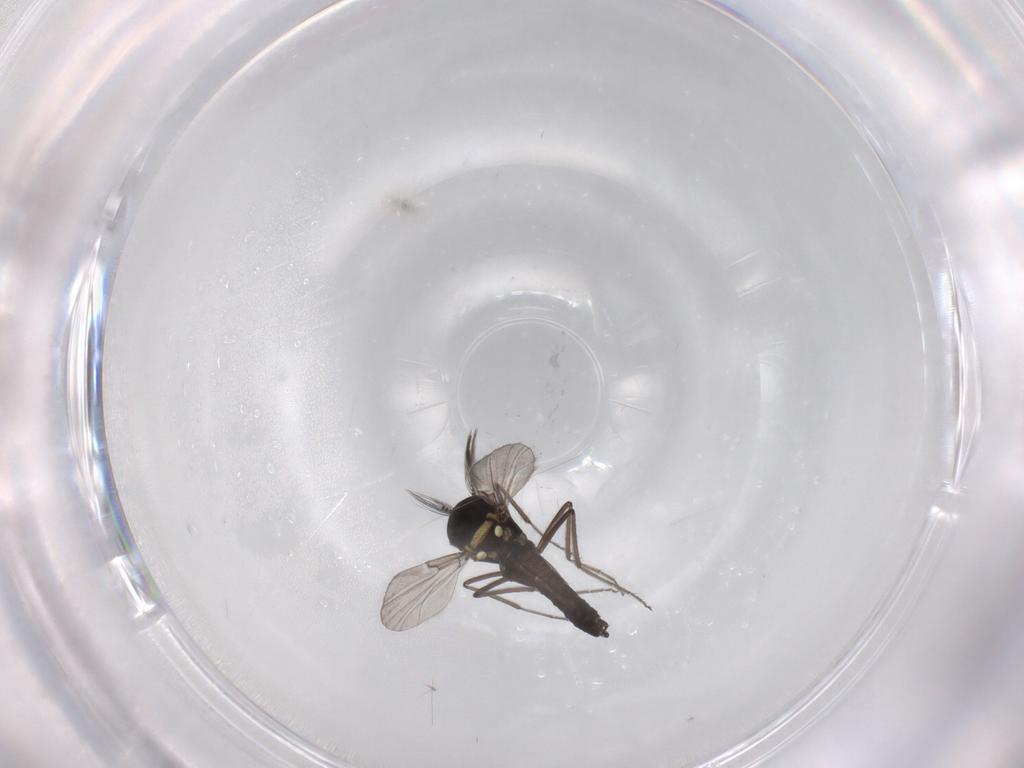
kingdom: Animalia
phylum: Arthropoda
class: Insecta
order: Diptera
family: Ceratopogonidae
